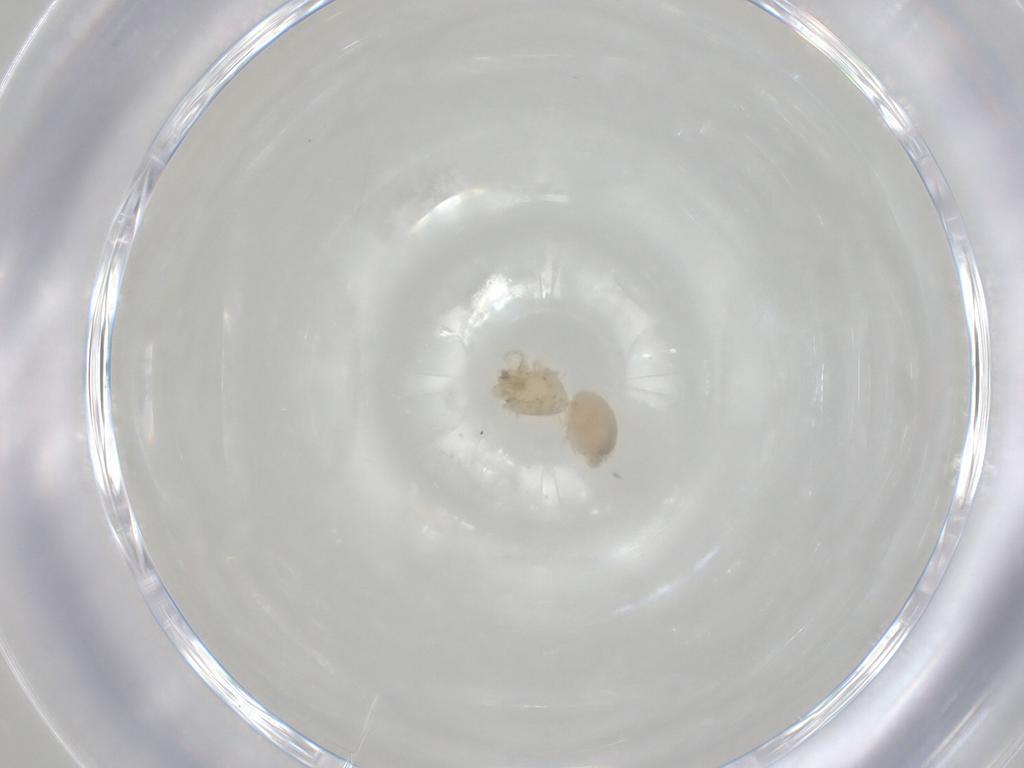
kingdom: Animalia
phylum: Arthropoda
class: Arachnida
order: Araneae
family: Oonopidae
